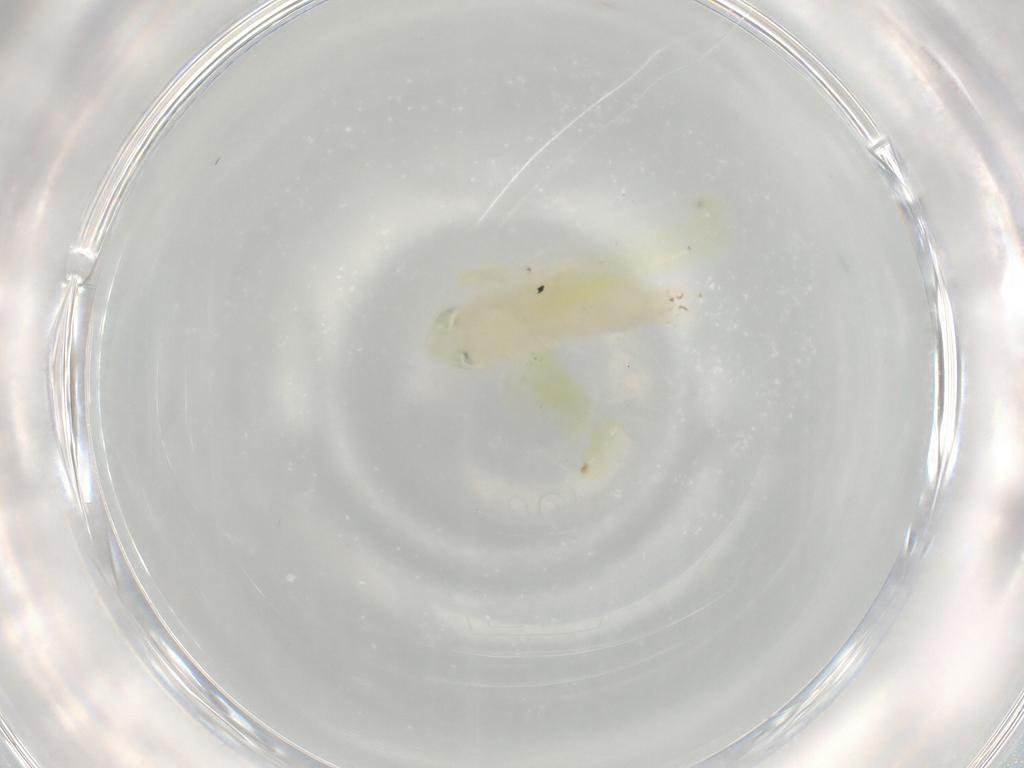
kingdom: Animalia
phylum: Arthropoda
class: Insecta
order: Hemiptera
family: Cicadellidae
